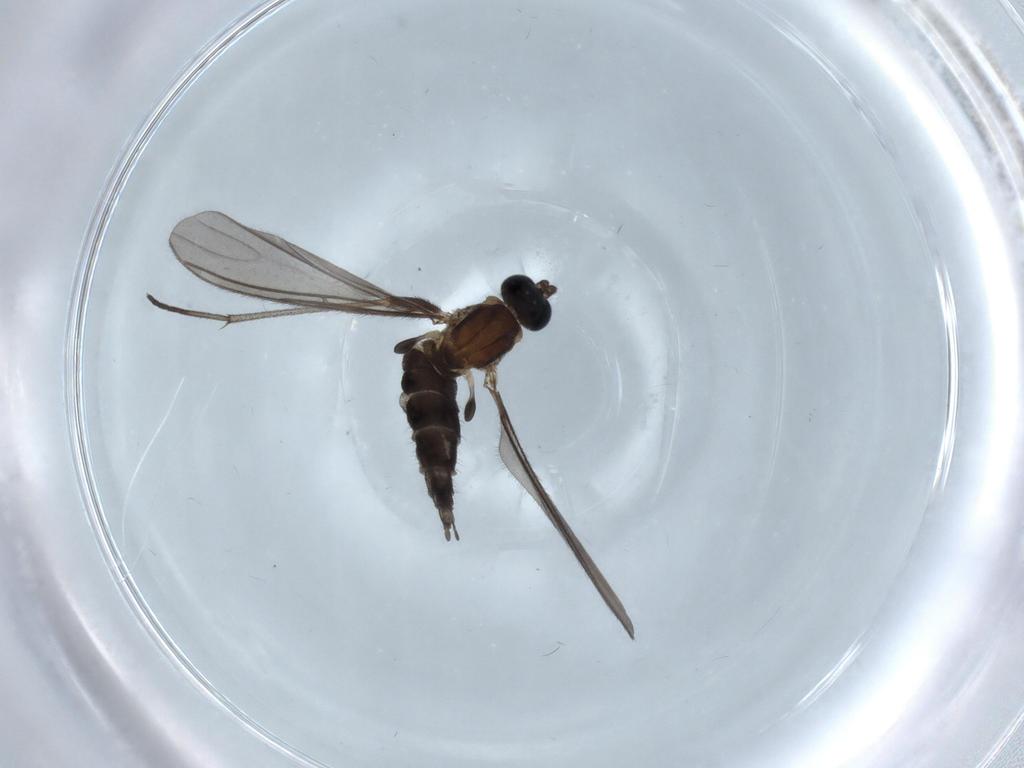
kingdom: Animalia
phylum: Arthropoda
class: Insecta
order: Diptera
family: Sciaridae
